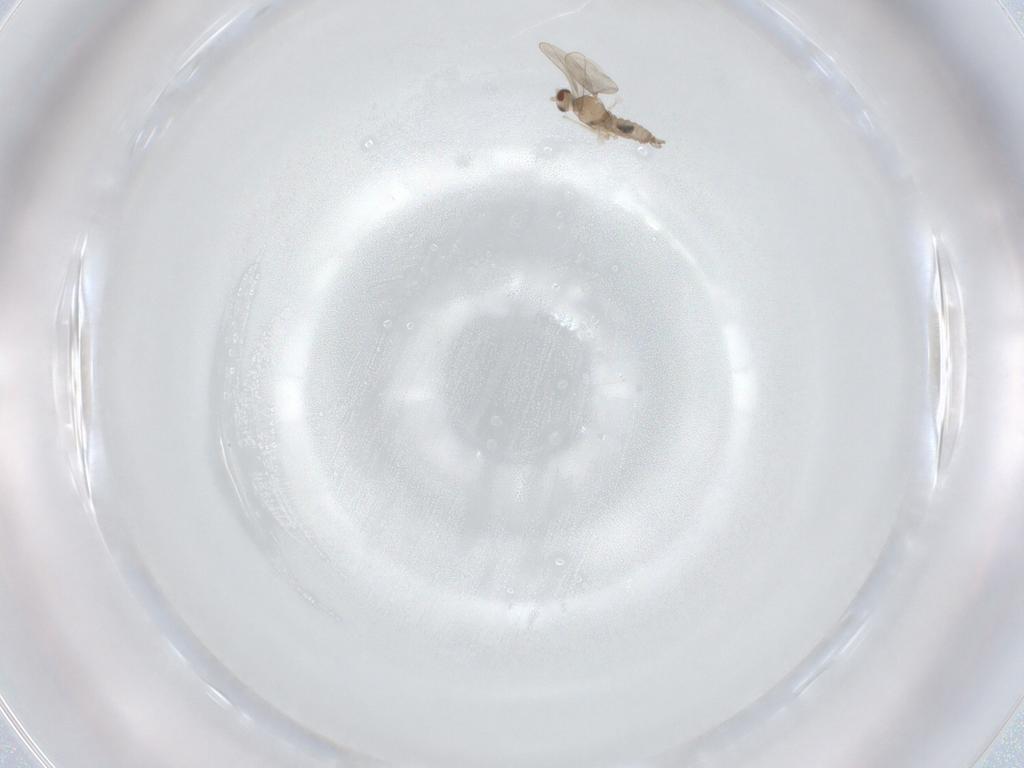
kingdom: Animalia
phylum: Arthropoda
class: Insecta
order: Diptera
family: Cecidomyiidae
